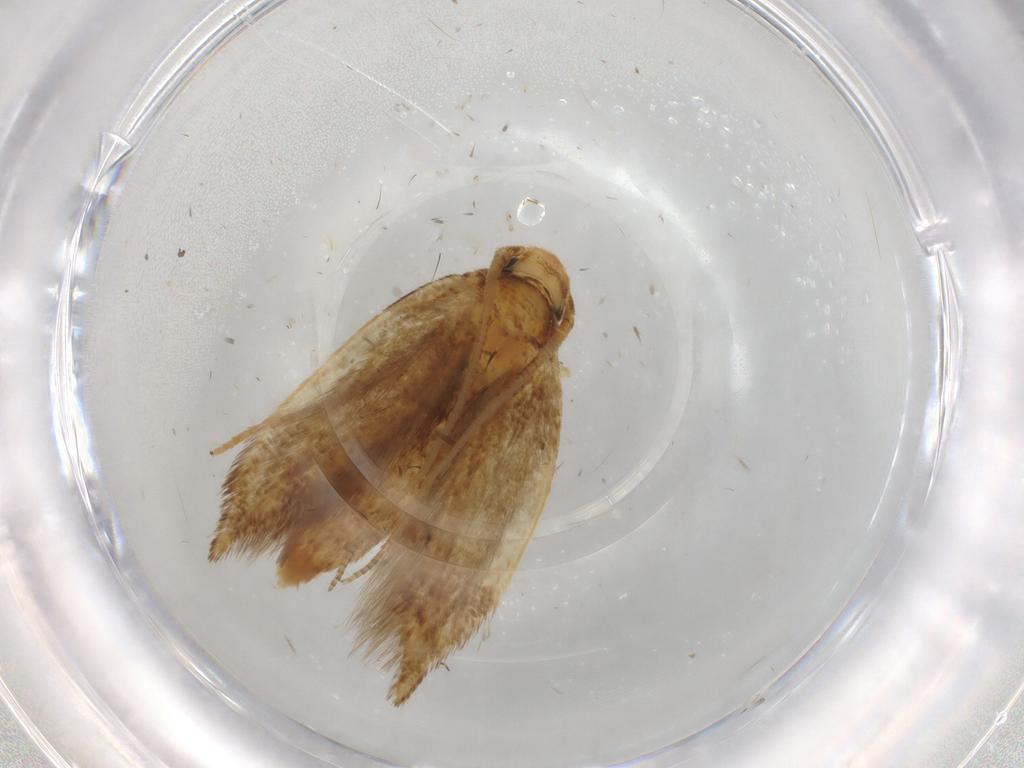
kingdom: Animalia
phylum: Arthropoda
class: Insecta
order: Lepidoptera
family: Tineidae
